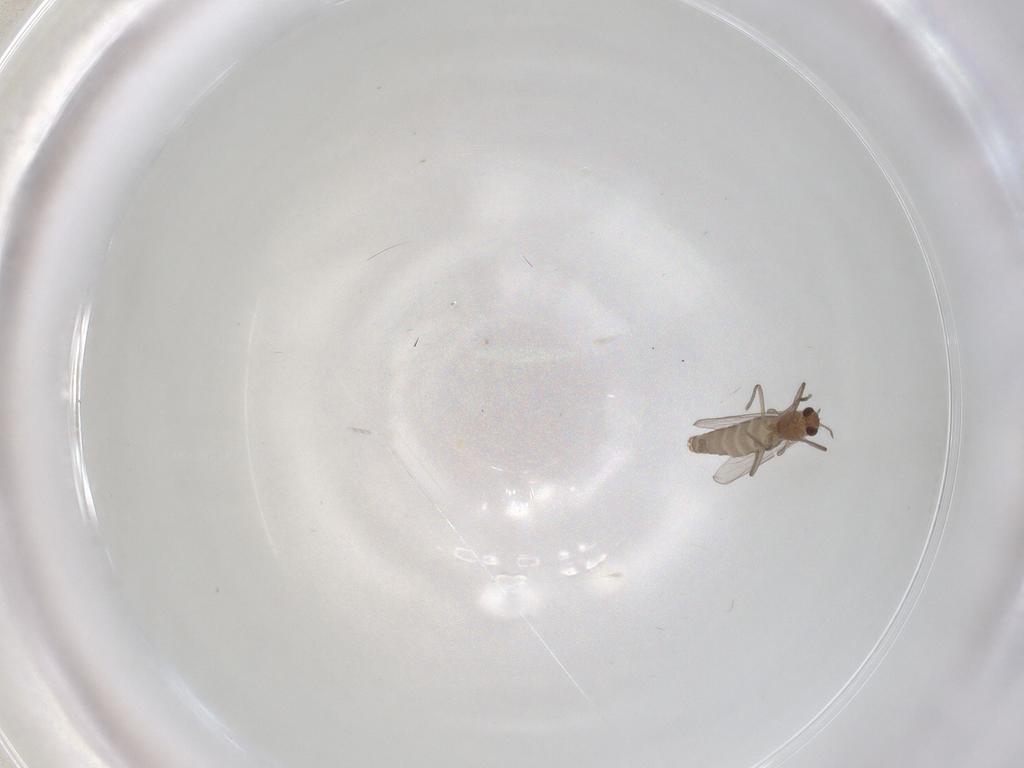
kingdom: Animalia
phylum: Arthropoda
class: Insecta
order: Diptera
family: Chironomidae
